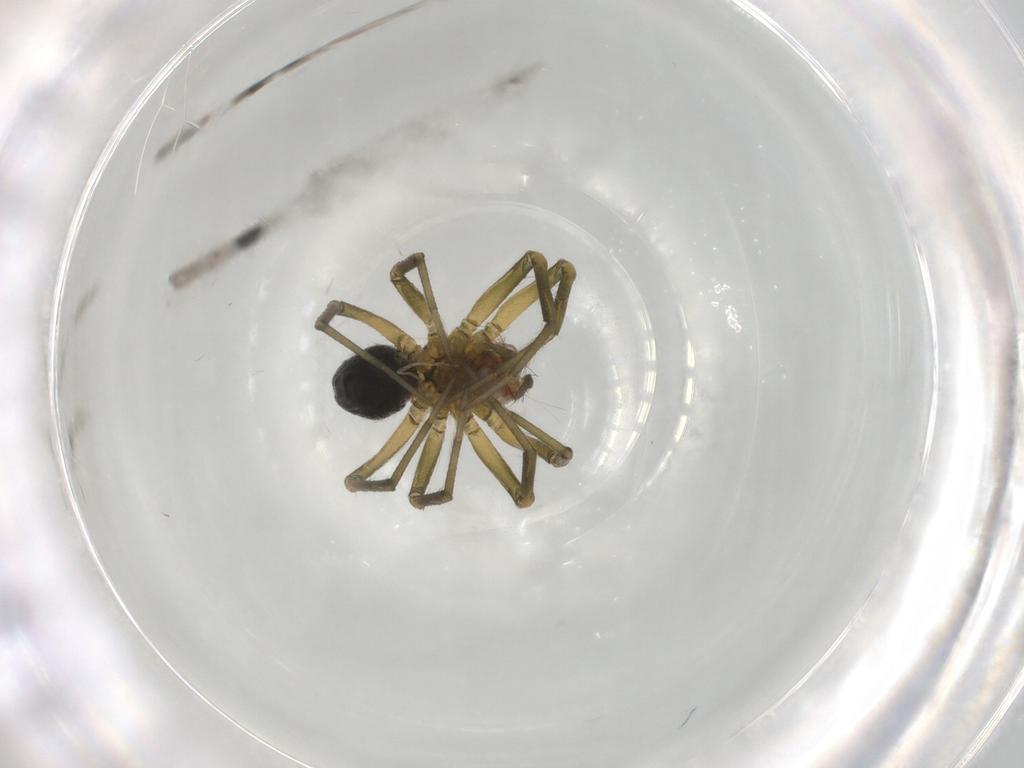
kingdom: Animalia
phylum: Arthropoda
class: Arachnida
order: Araneae
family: Linyphiidae
